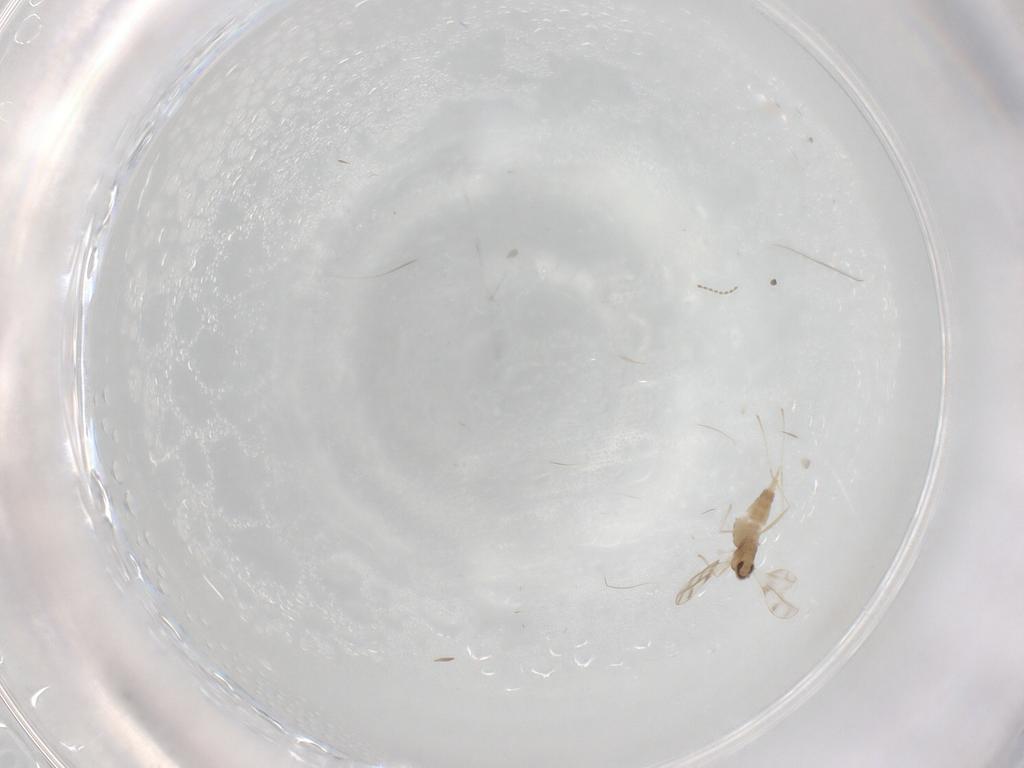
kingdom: Animalia
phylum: Arthropoda
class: Insecta
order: Diptera
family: Cecidomyiidae
